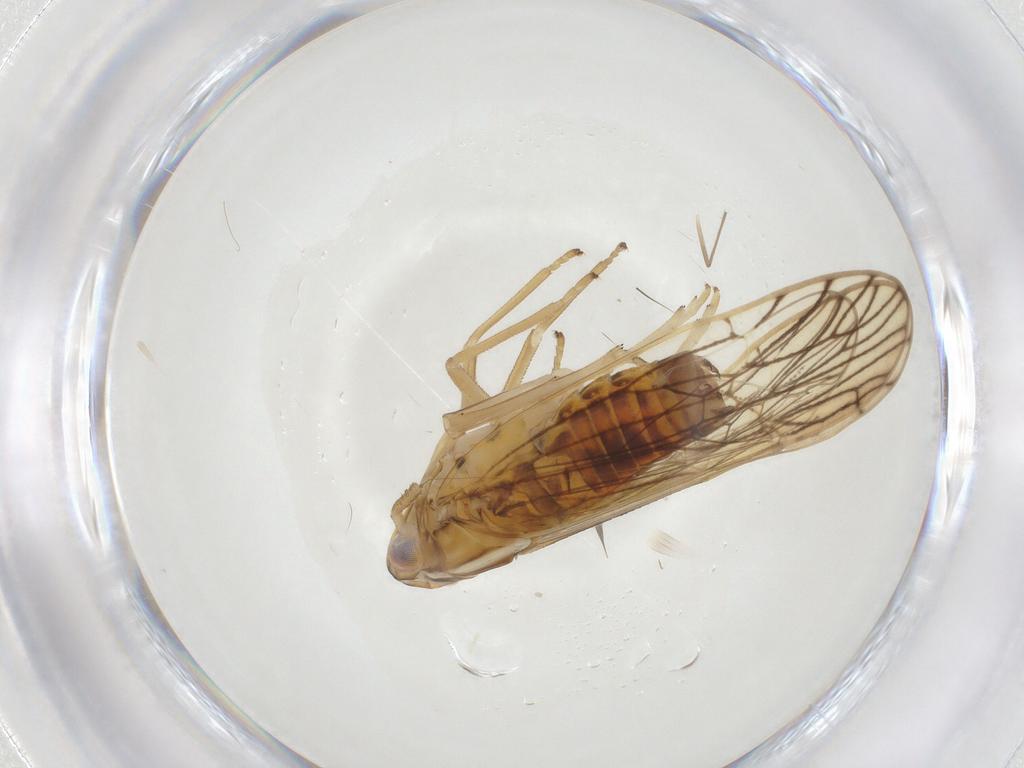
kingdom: Animalia
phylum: Arthropoda
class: Insecta
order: Hemiptera
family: Delphacidae
